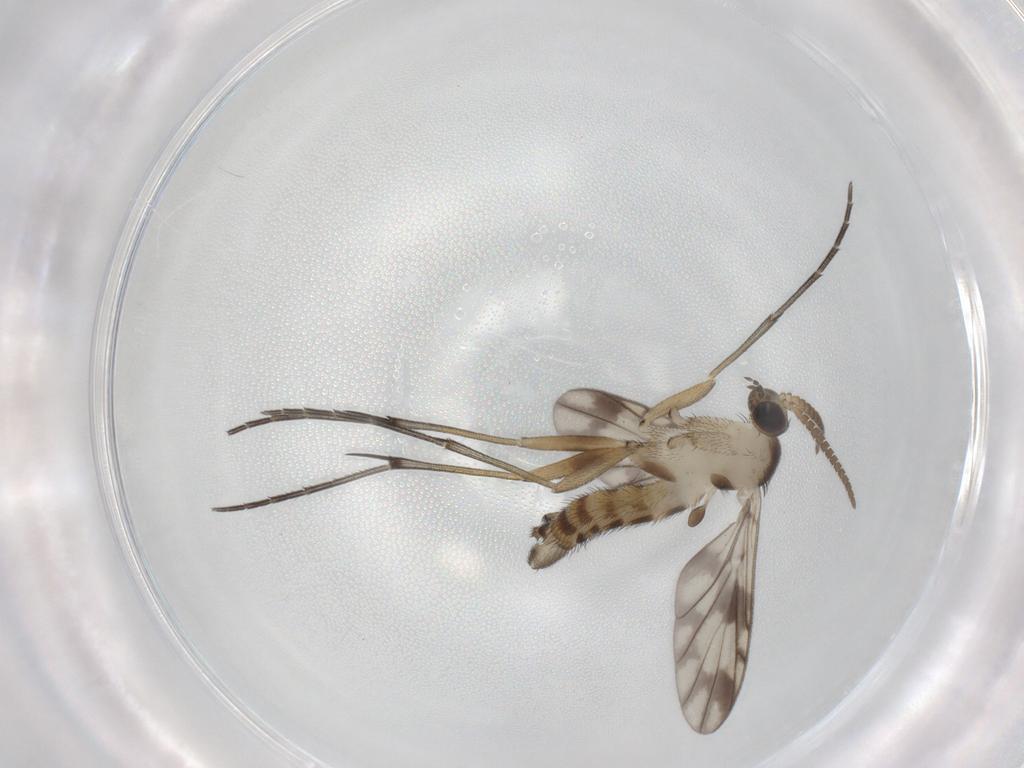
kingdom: Animalia
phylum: Arthropoda
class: Insecta
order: Diptera
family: Keroplatidae
